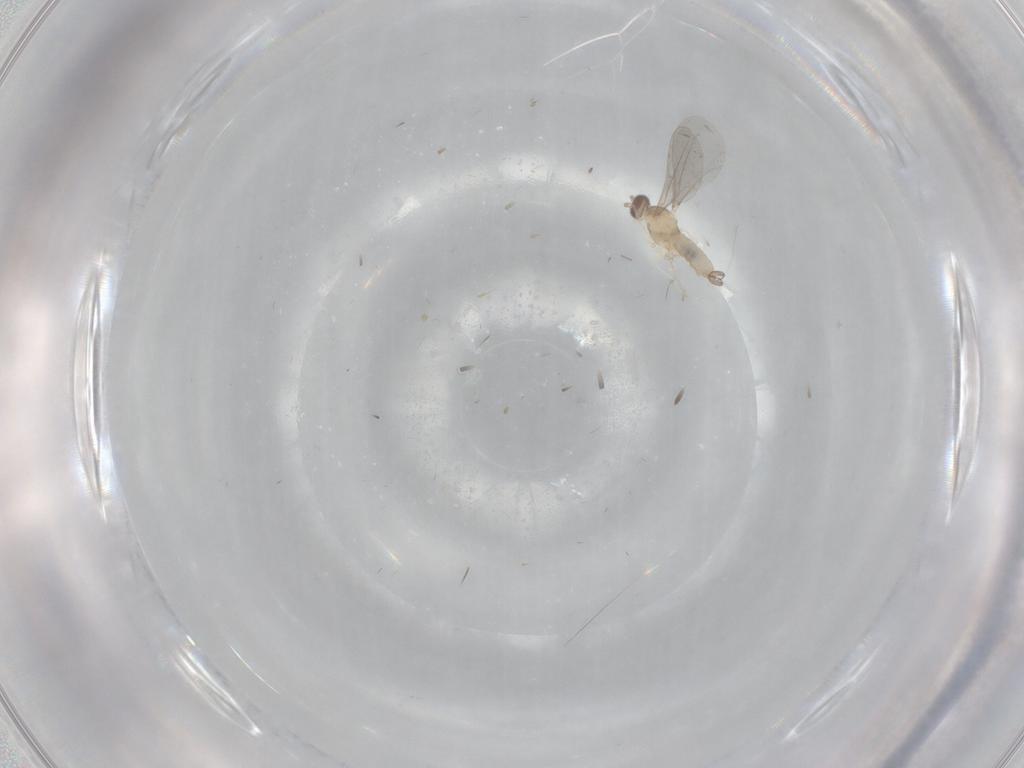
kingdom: Animalia
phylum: Arthropoda
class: Insecta
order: Diptera
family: Cecidomyiidae
